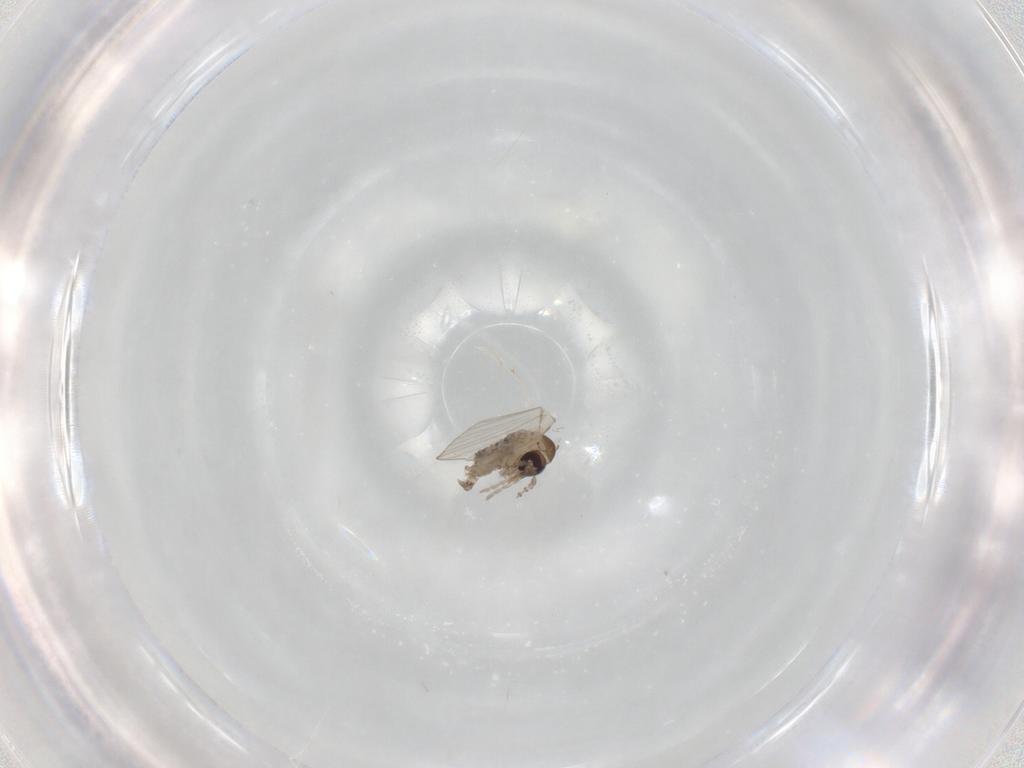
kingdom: Animalia
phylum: Arthropoda
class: Insecta
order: Diptera
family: Psychodidae
